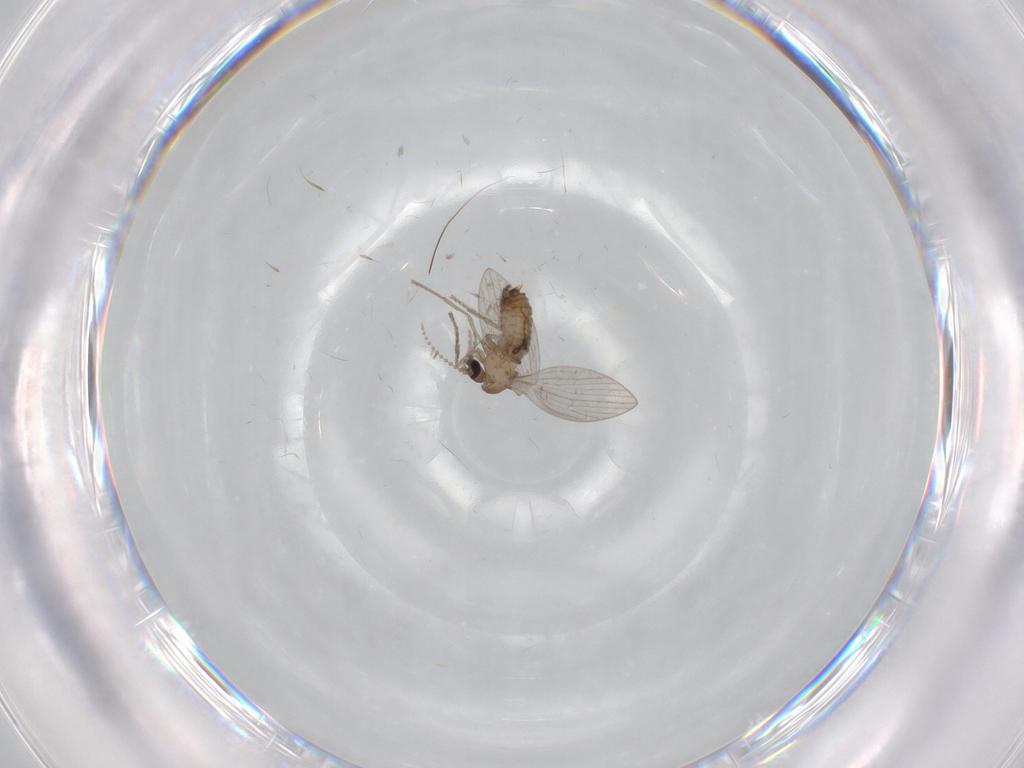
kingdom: Animalia
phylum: Arthropoda
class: Insecta
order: Diptera
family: Psychodidae
